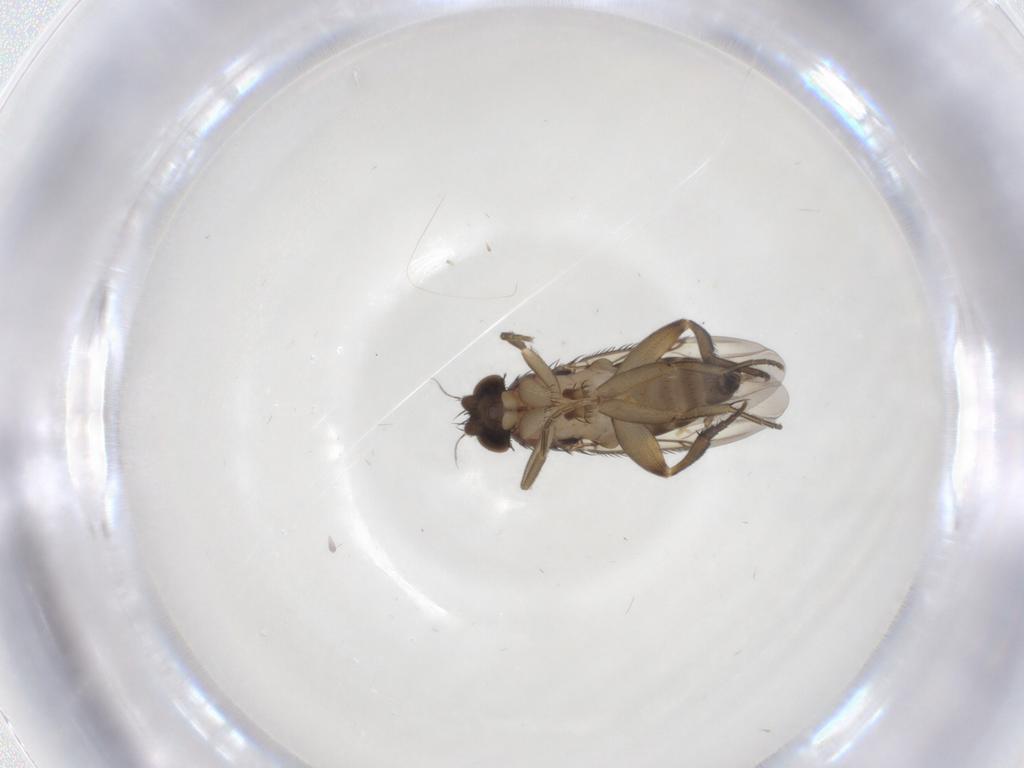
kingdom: Animalia
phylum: Arthropoda
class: Insecta
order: Diptera
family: Phoridae
